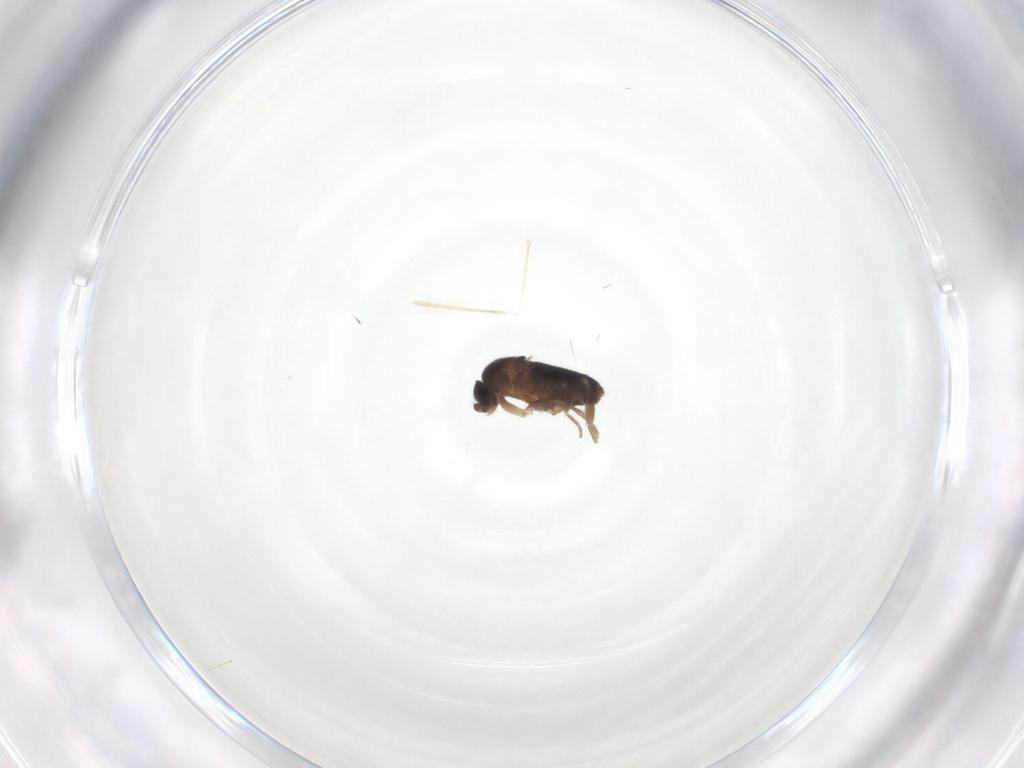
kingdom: Animalia
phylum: Arthropoda
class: Insecta
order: Diptera
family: Cecidomyiidae
